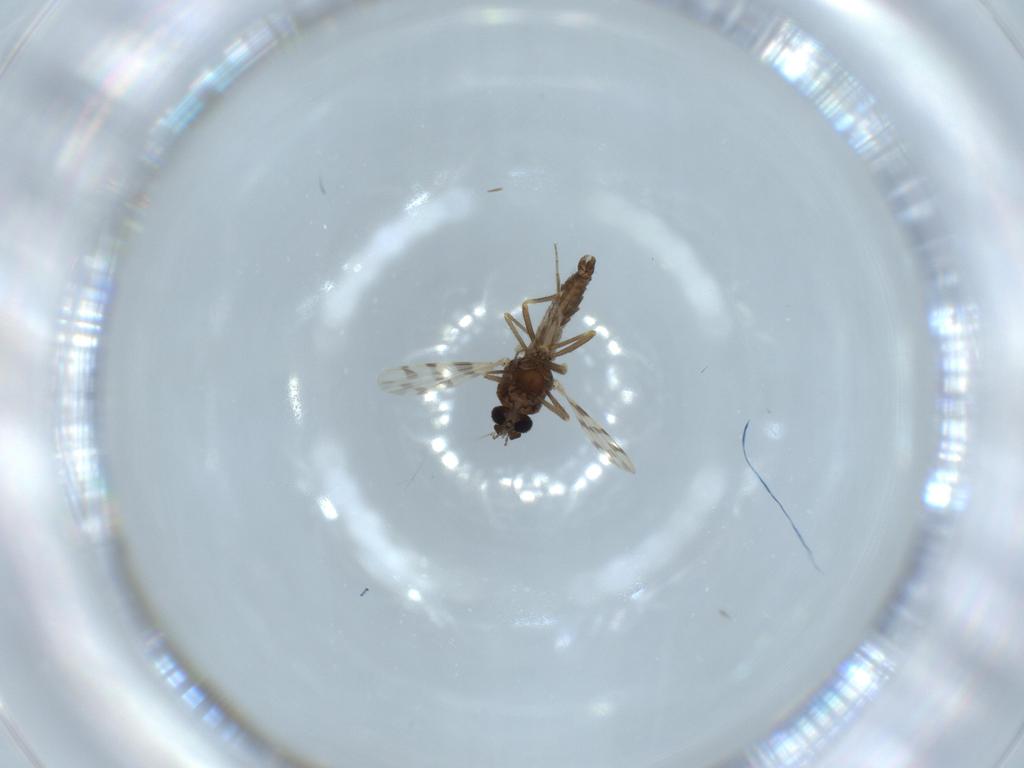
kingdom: Animalia
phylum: Arthropoda
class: Insecta
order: Diptera
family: Ceratopogonidae
